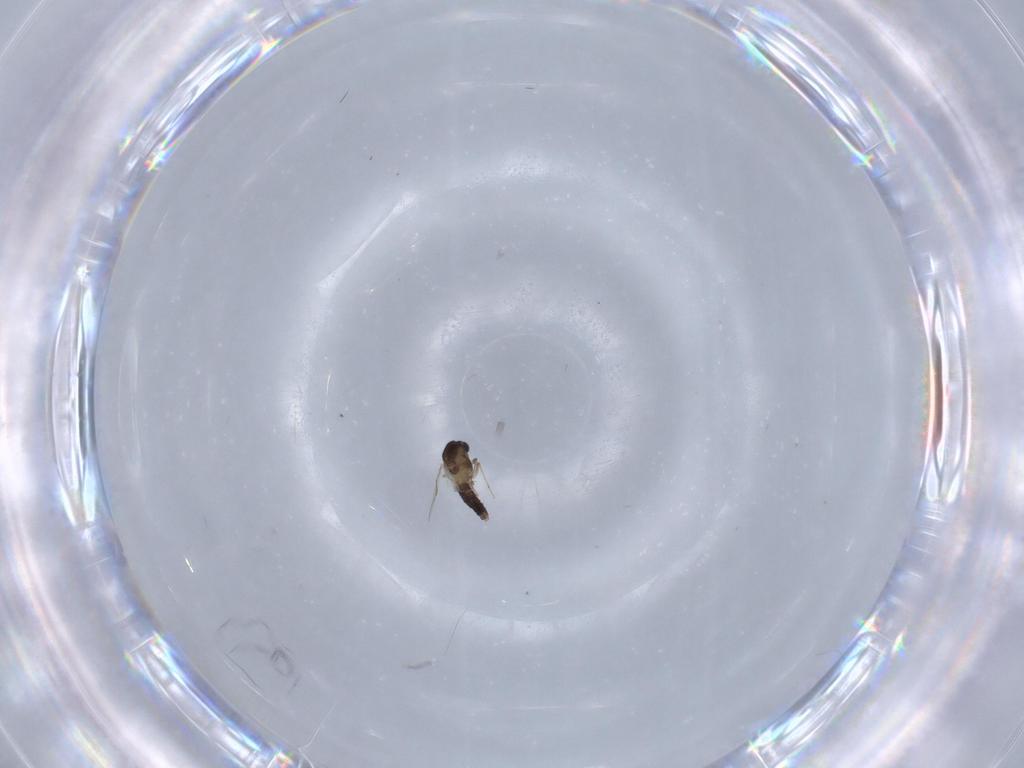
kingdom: Animalia
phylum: Arthropoda
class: Insecta
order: Diptera
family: Chironomidae
